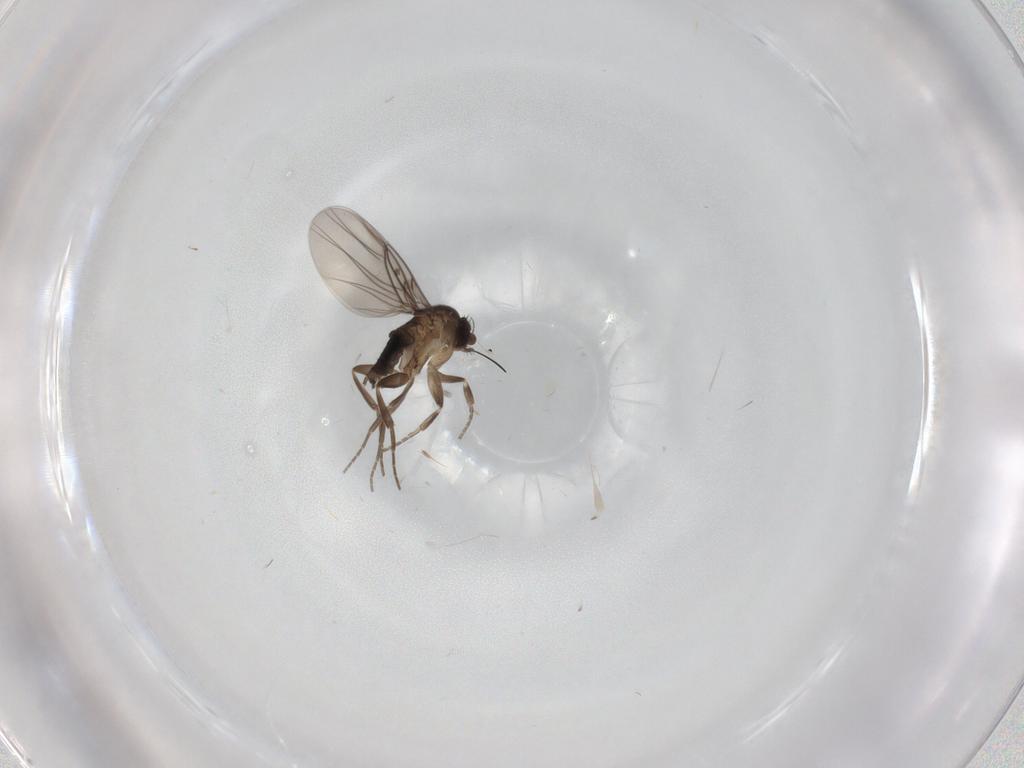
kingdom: Animalia
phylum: Arthropoda
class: Insecta
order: Diptera
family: Phoridae
